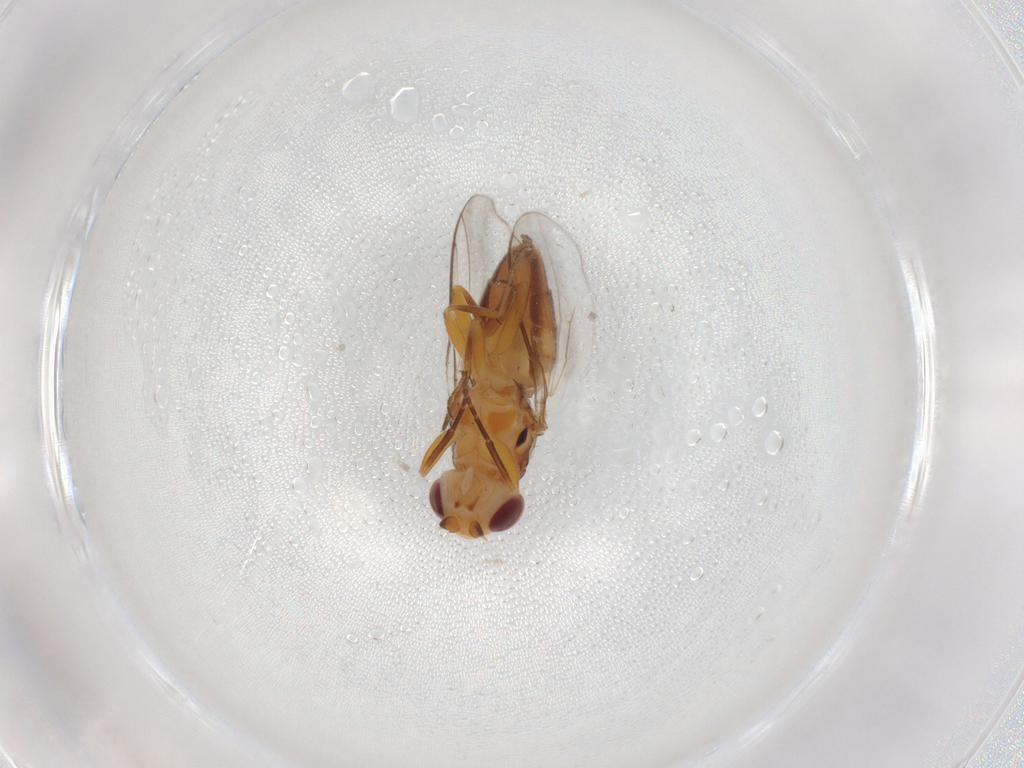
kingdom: Animalia
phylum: Arthropoda
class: Insecta
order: Diptera
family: Chloropidae
